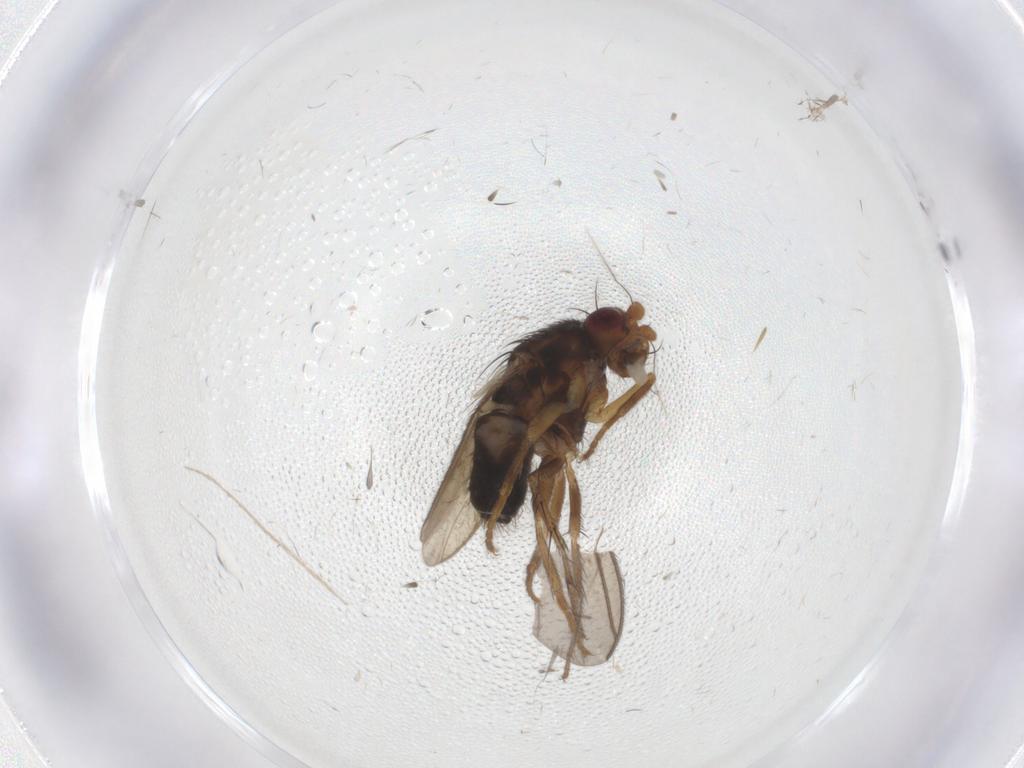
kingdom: Animalia
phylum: Arthropoda
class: Insecta
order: Diptera
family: Sphaeroceridae
